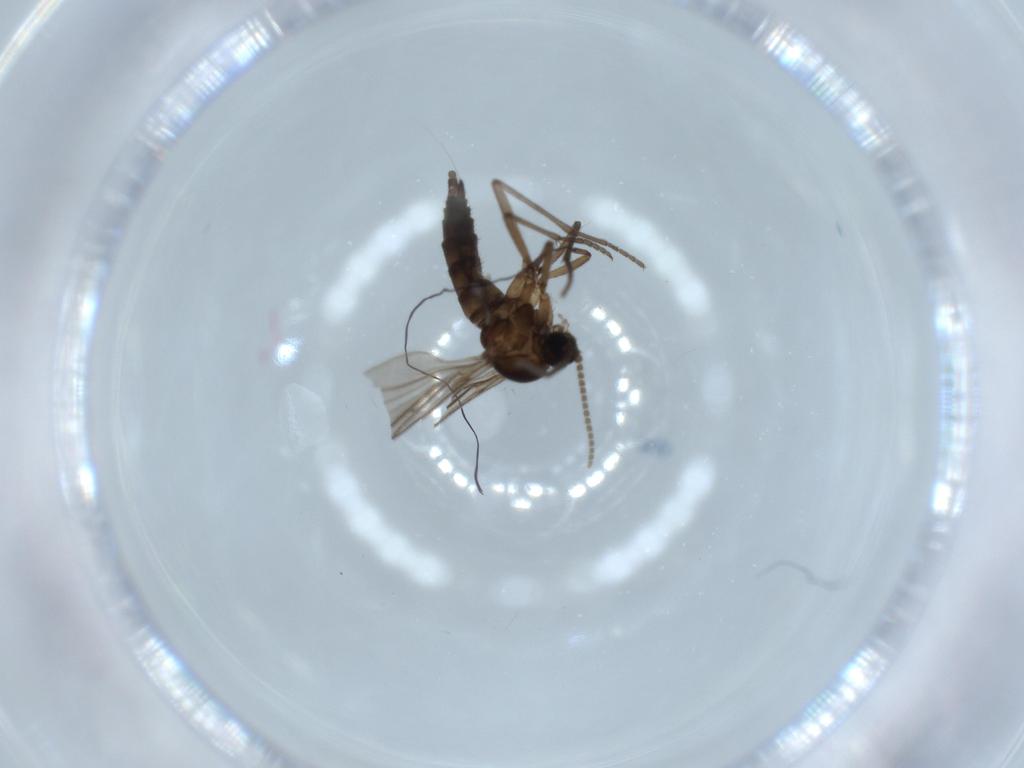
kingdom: Animalia
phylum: Arthropoda
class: Insecta
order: Diptera
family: Sciaridae
